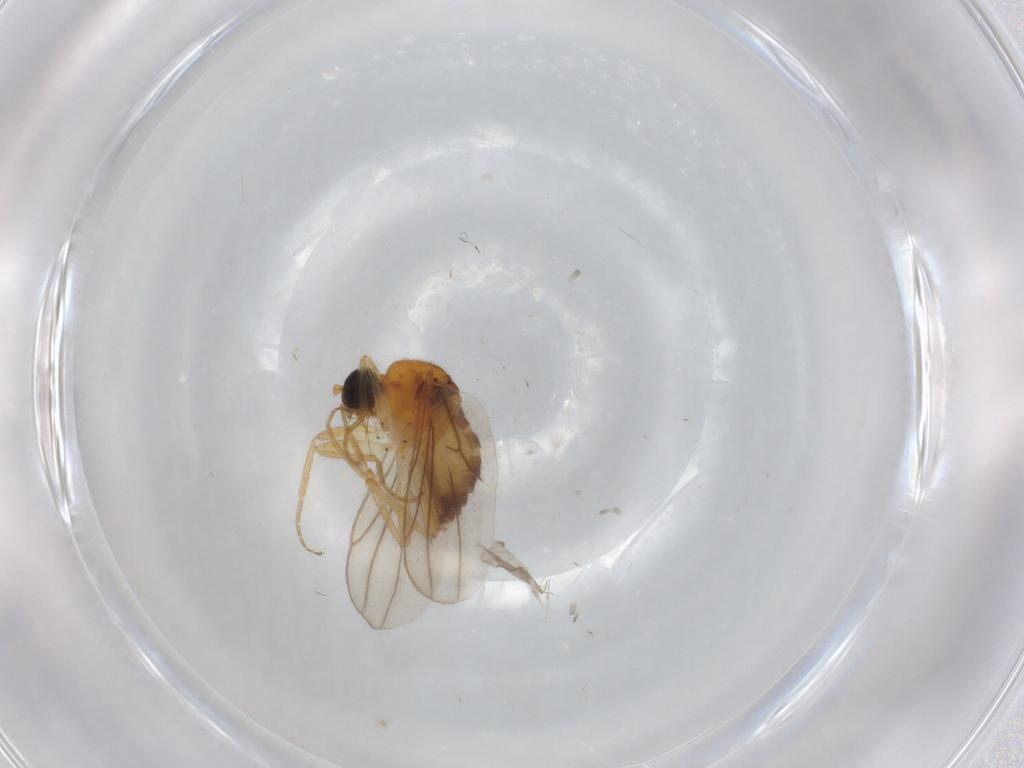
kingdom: Animalia
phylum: Arthropoda
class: Insecta
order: Diptera
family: Hybotidae
